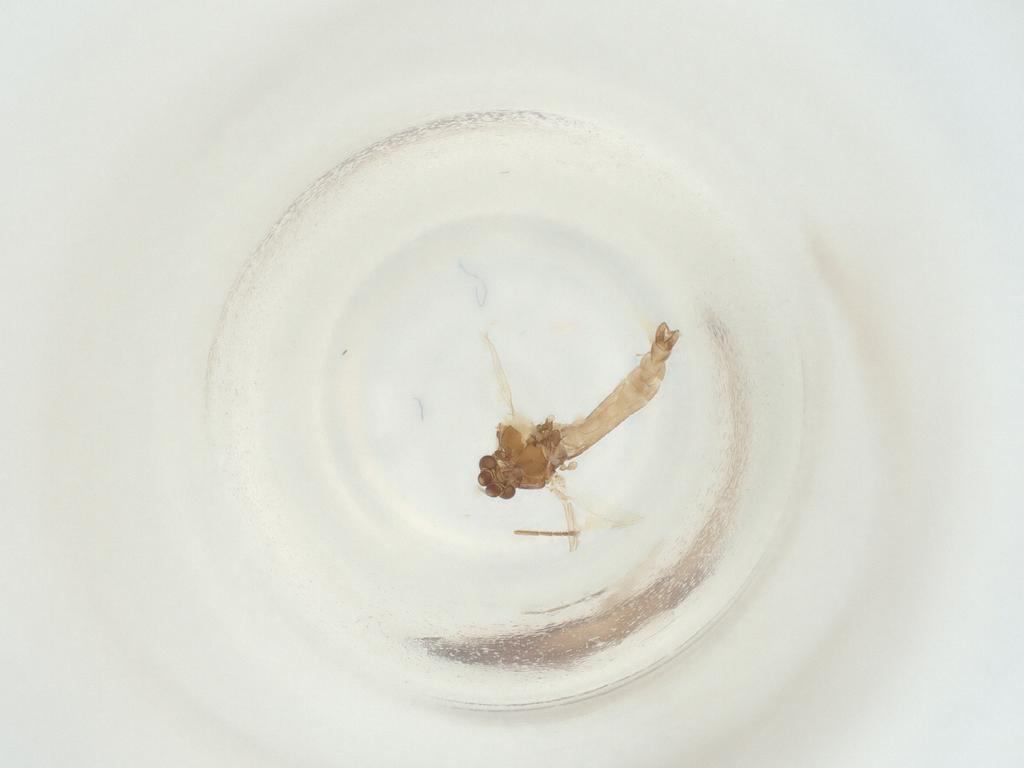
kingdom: Animalia
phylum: Arthropoda
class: Insecta
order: Diptera
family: Chironomidae
